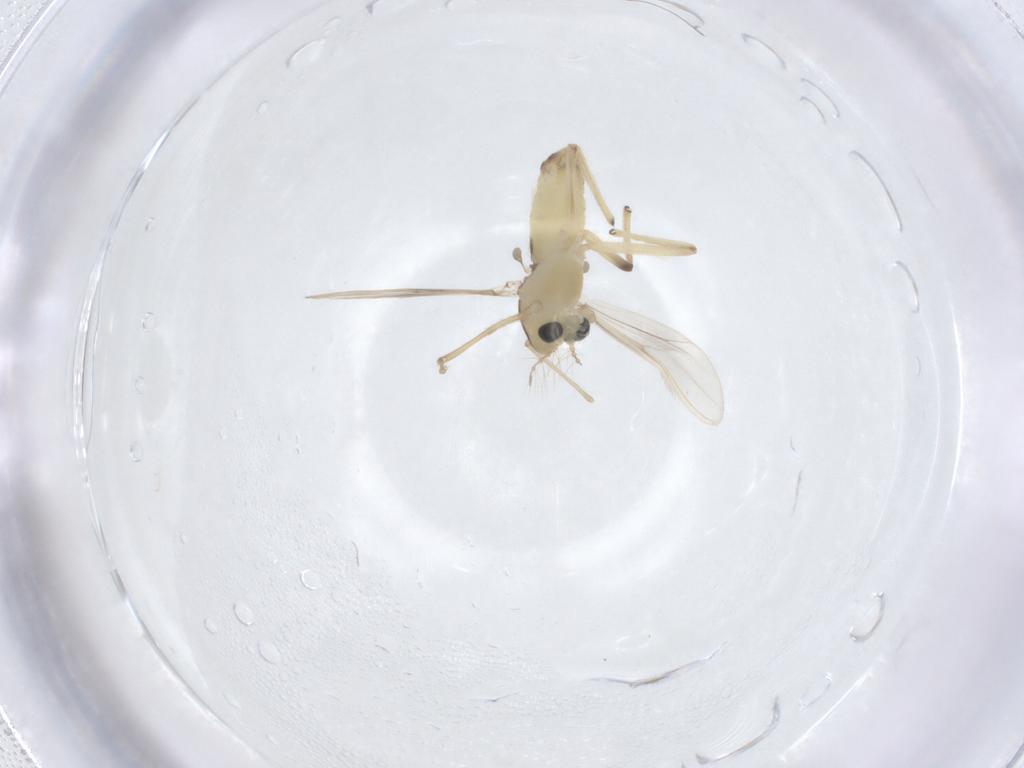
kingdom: Animalia
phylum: Arthropoda
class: Insecta
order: Diptera
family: Chironomidae
